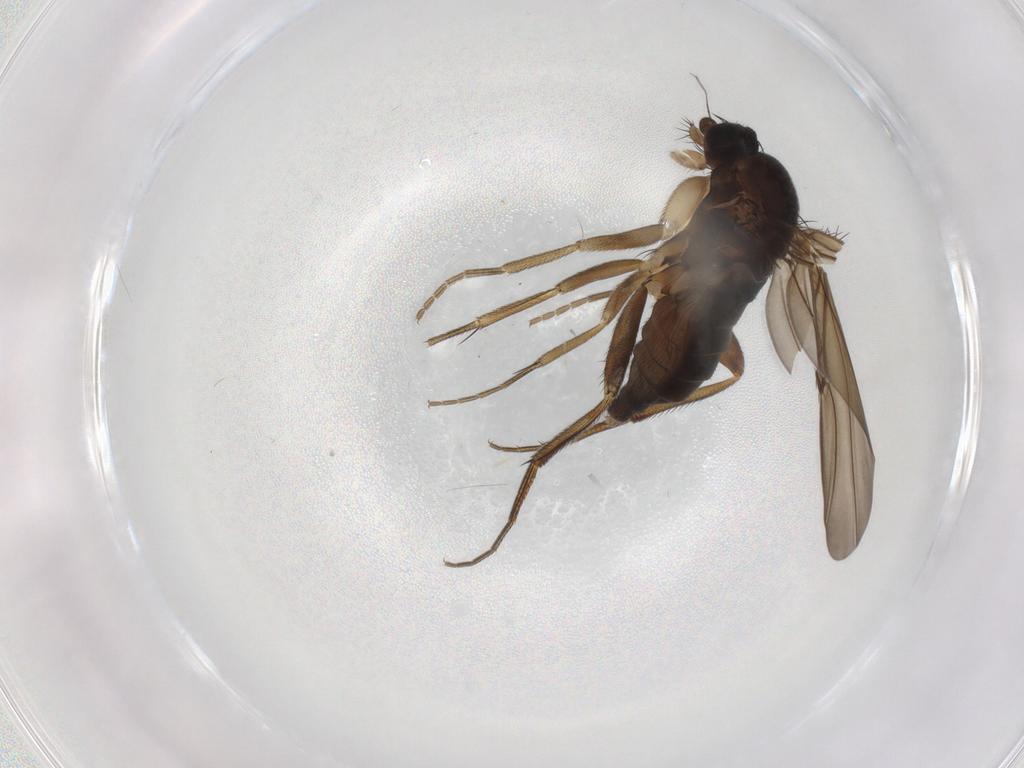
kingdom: Animalia
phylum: Arthropoda
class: Insecta
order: Diptera
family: Phoridae
